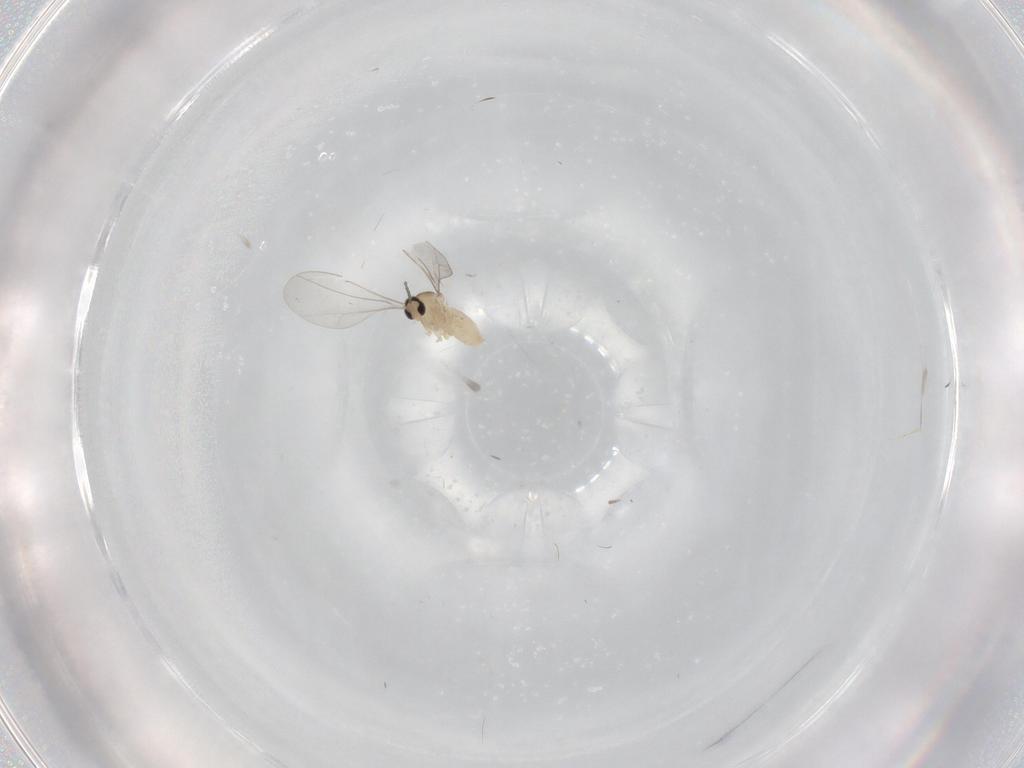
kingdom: Animalia
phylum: Arthropoda
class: Insecta
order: Diptera
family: Cecidomyiidae
